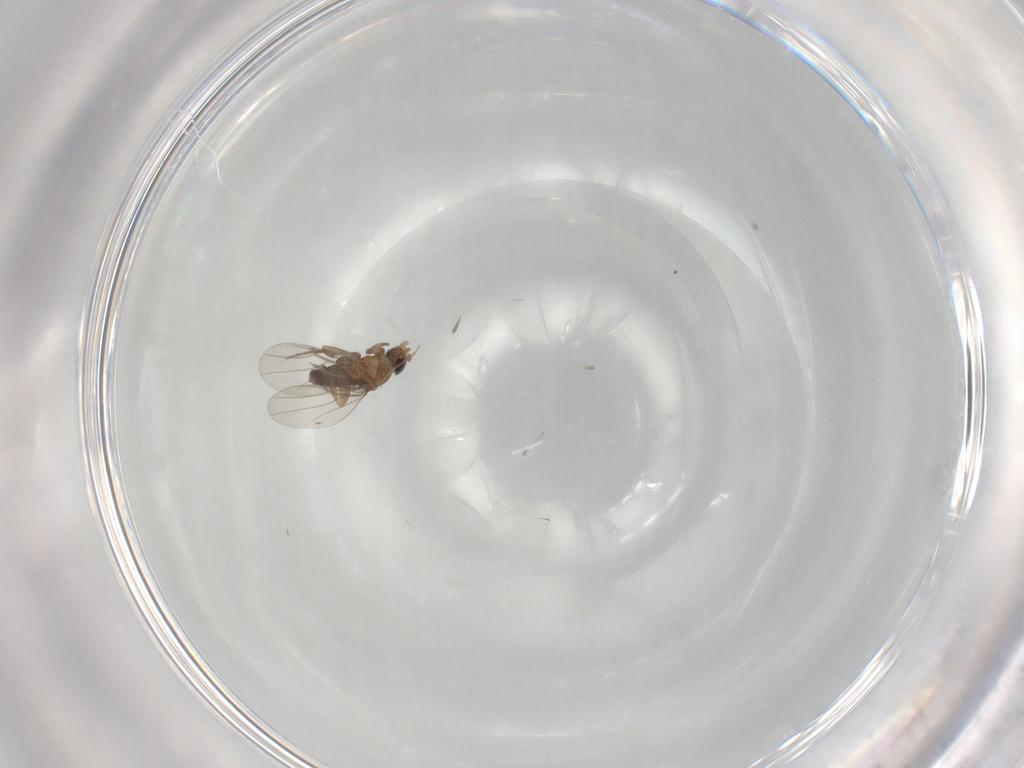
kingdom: Animalia
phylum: Arthropoda
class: Insecta
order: Diptera
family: Phoridae
